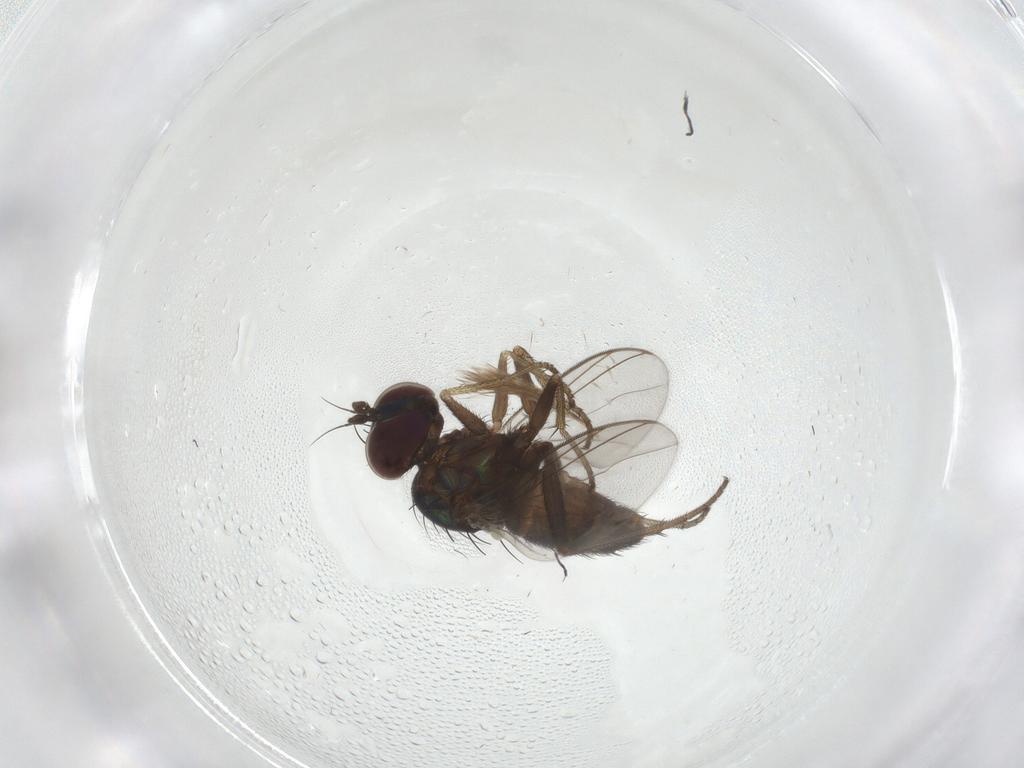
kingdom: Animalia
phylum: Arthropoda
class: Insecta
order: Diptera
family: Dolichopodidae
